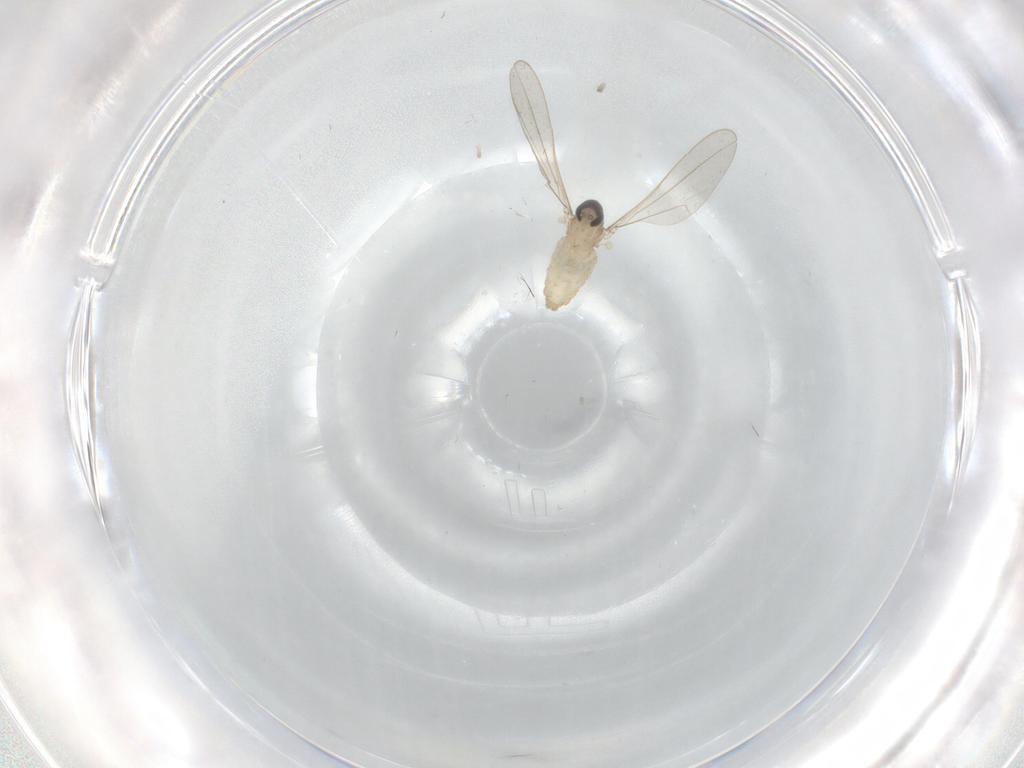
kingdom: Animalia
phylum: Arthropoda
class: Insecta
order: Diptera
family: Cecidomyiidae
